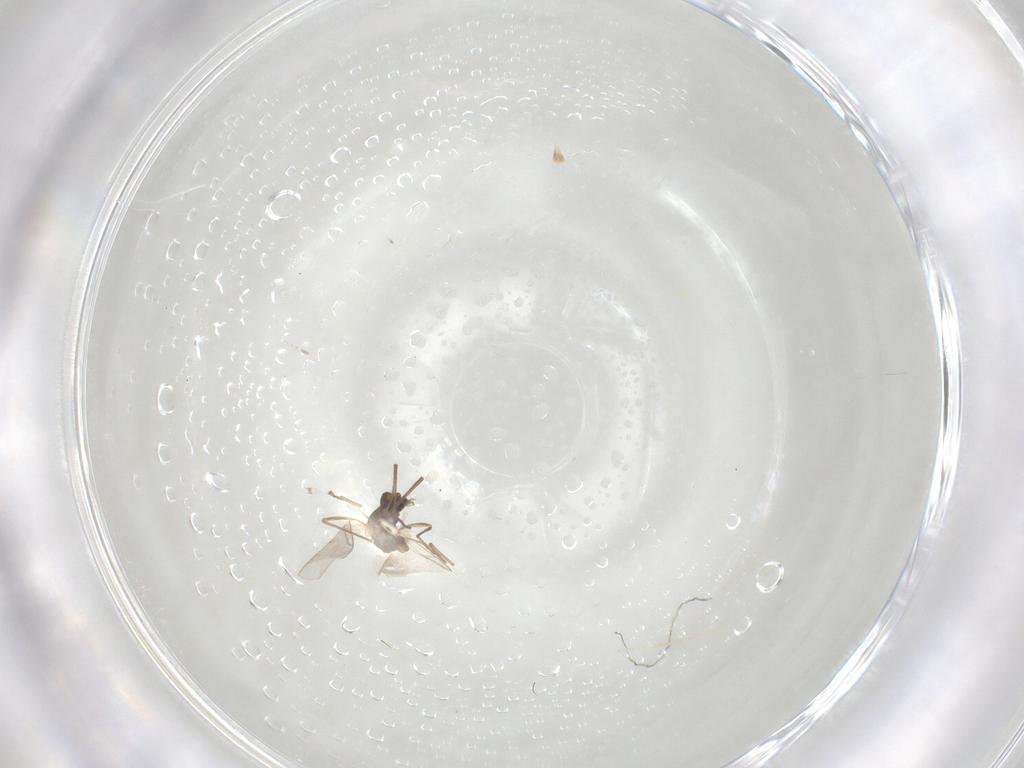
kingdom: Animalia
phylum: Arthropoda
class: Insecta
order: Diptera
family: Cecidomyiidae
